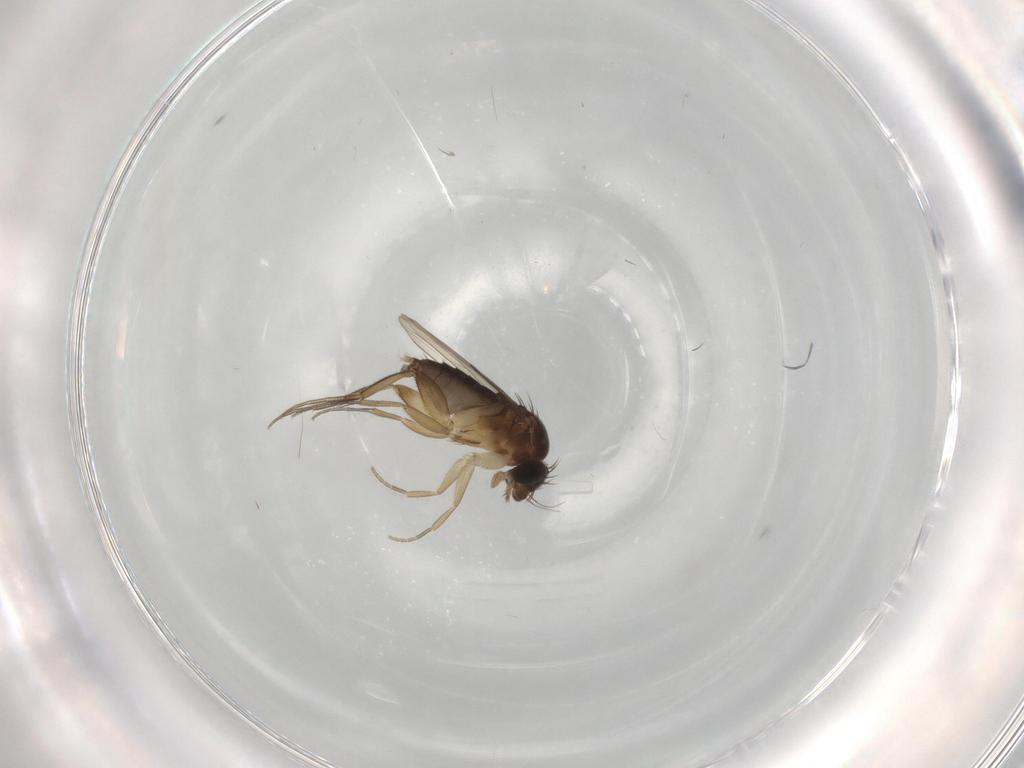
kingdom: Animalia
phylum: Arthropoda
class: Insecta
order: Diptera
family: Phoridae
